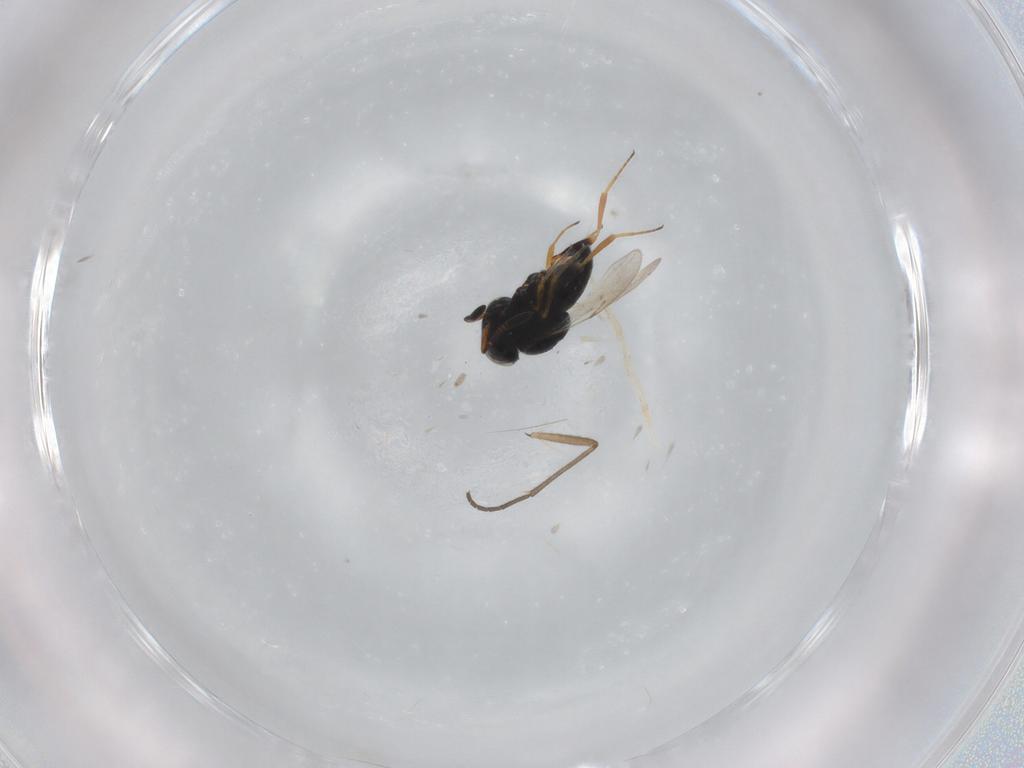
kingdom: Animalia
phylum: Arthropoda
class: Insecta
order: Coleoptera
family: Curculionidae
